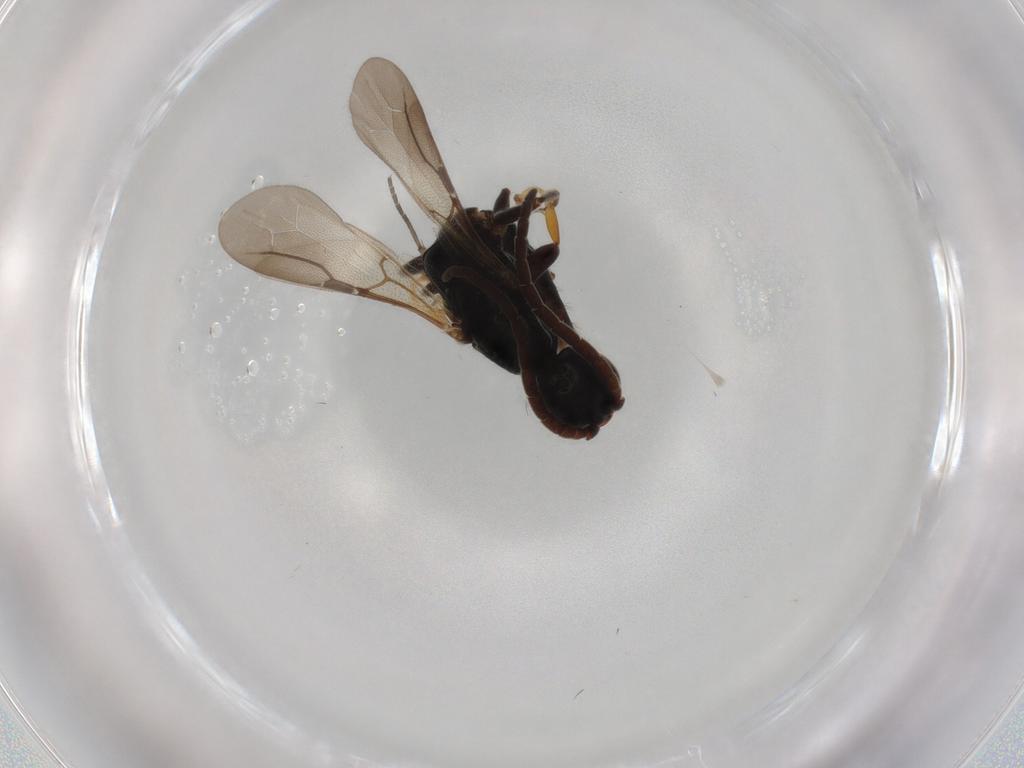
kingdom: Animalia
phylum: Arthropoda
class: Insecta
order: Hymenoptera
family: Bethylidae
